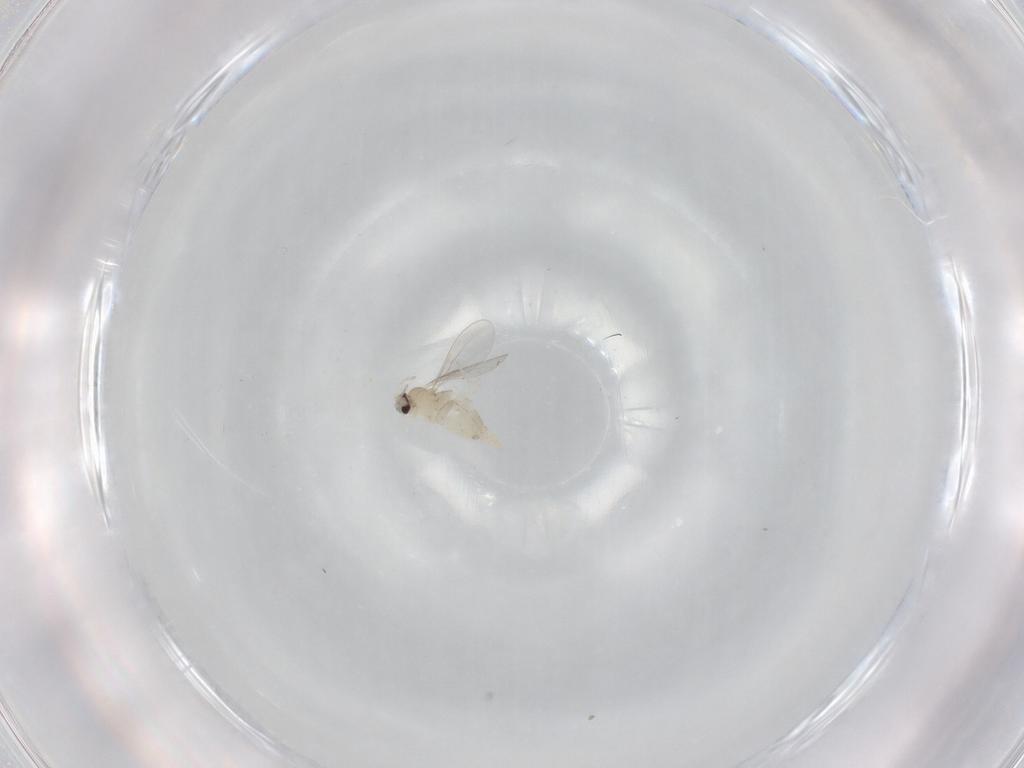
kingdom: Animalia
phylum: Arthropoda
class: Insecta
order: Diptera
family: Cecidomyiidae
